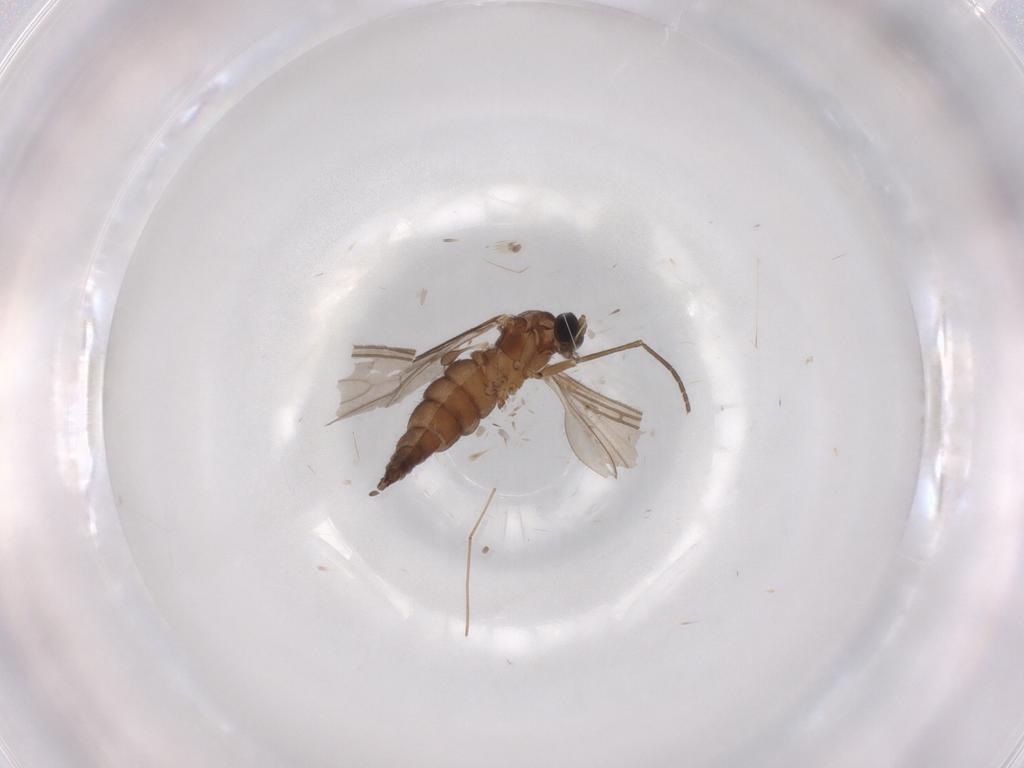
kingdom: Animalia
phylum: Arthropoda
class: Insecta
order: Diptera
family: Sciaridae
